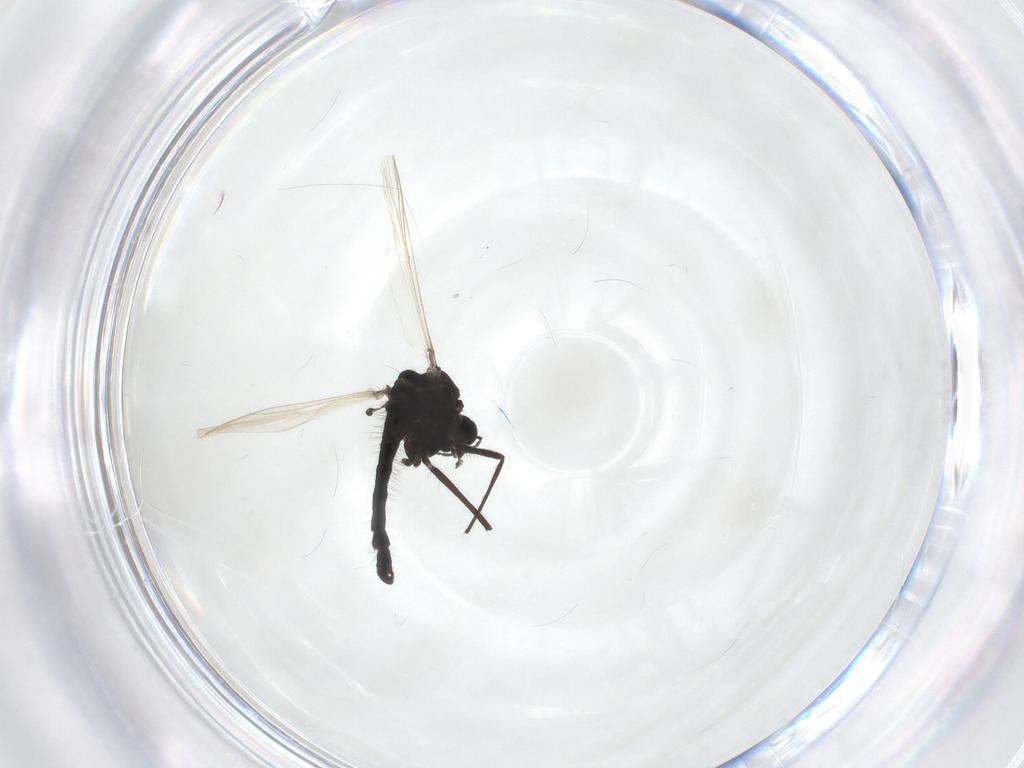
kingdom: Animalia
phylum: Arthropoda
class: Insecta
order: Diptera
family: Chironomidae
